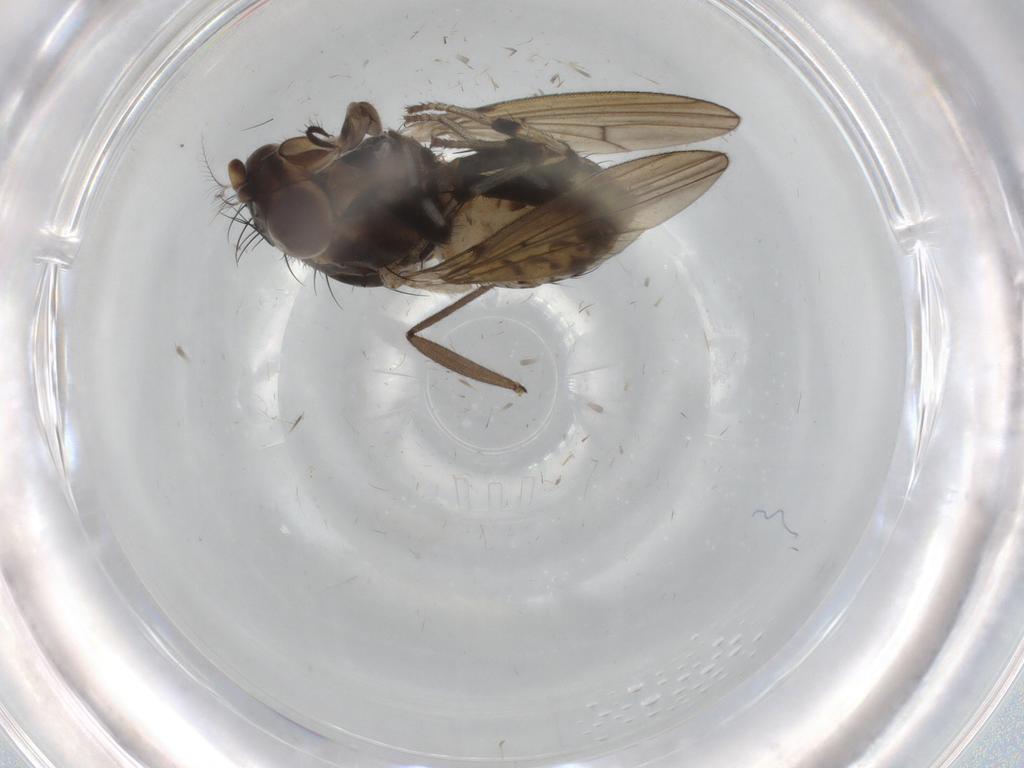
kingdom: Animalia
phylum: Arthropoda
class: Insecta
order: Diptera
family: Sciaridae
